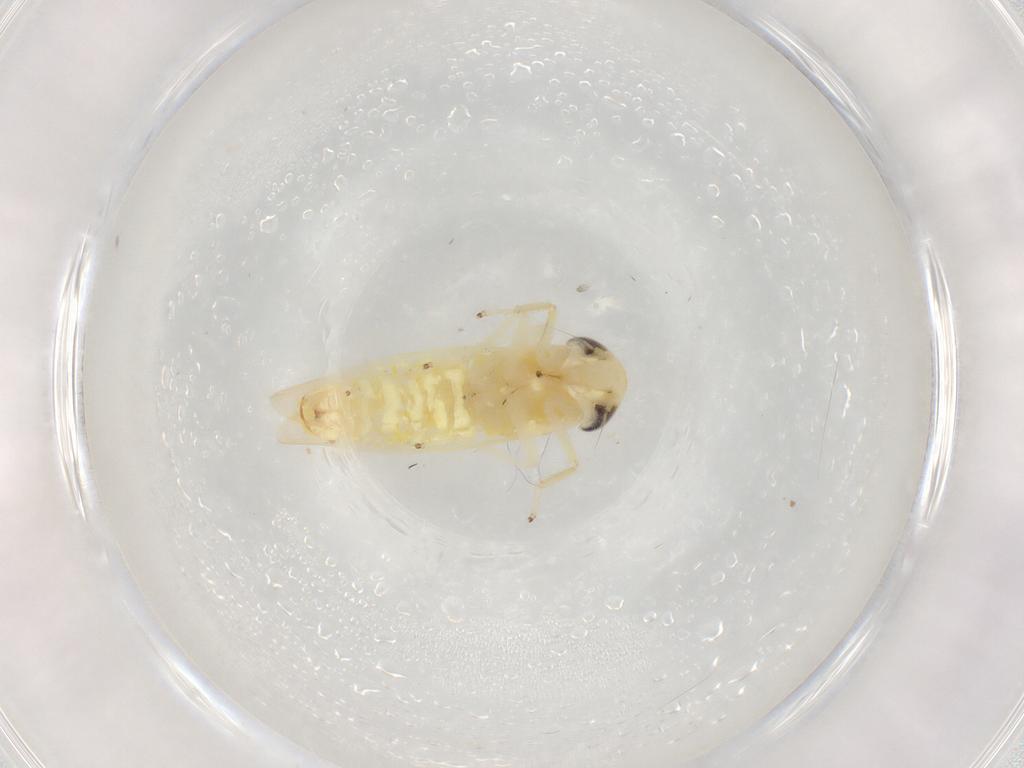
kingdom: Animalia
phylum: Arthropoda
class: Insecta
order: Hemiptera
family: Cicadellidae
